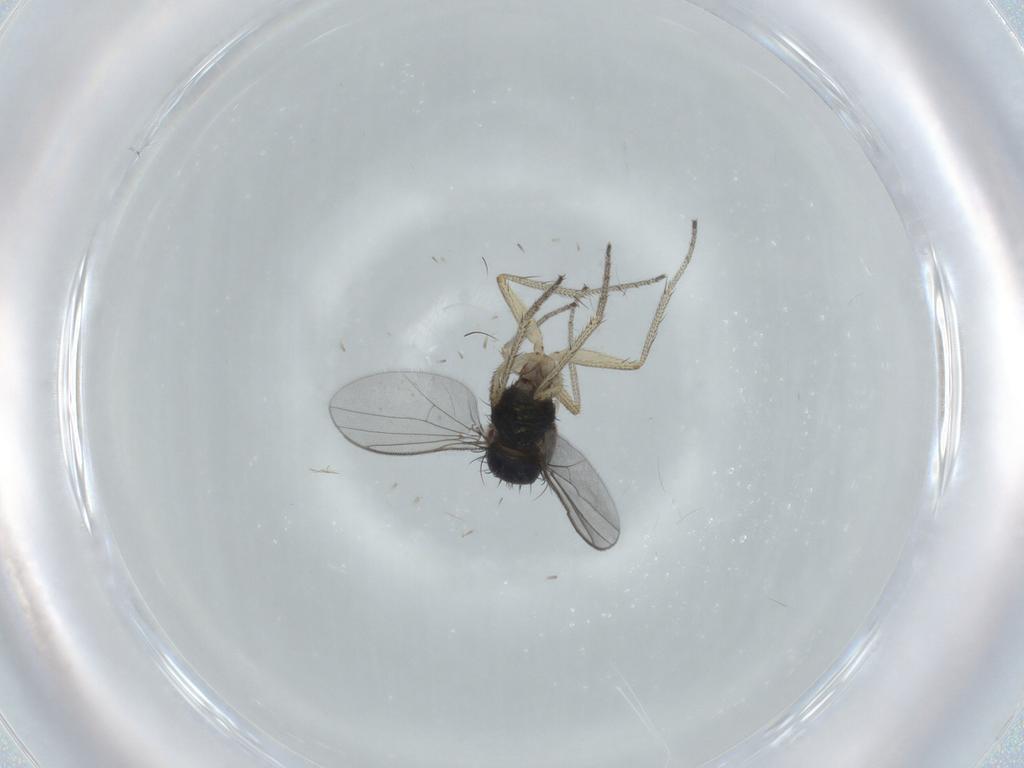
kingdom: Animalia
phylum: Arthropoda
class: Insecta
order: Diptera
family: Sciaridae
